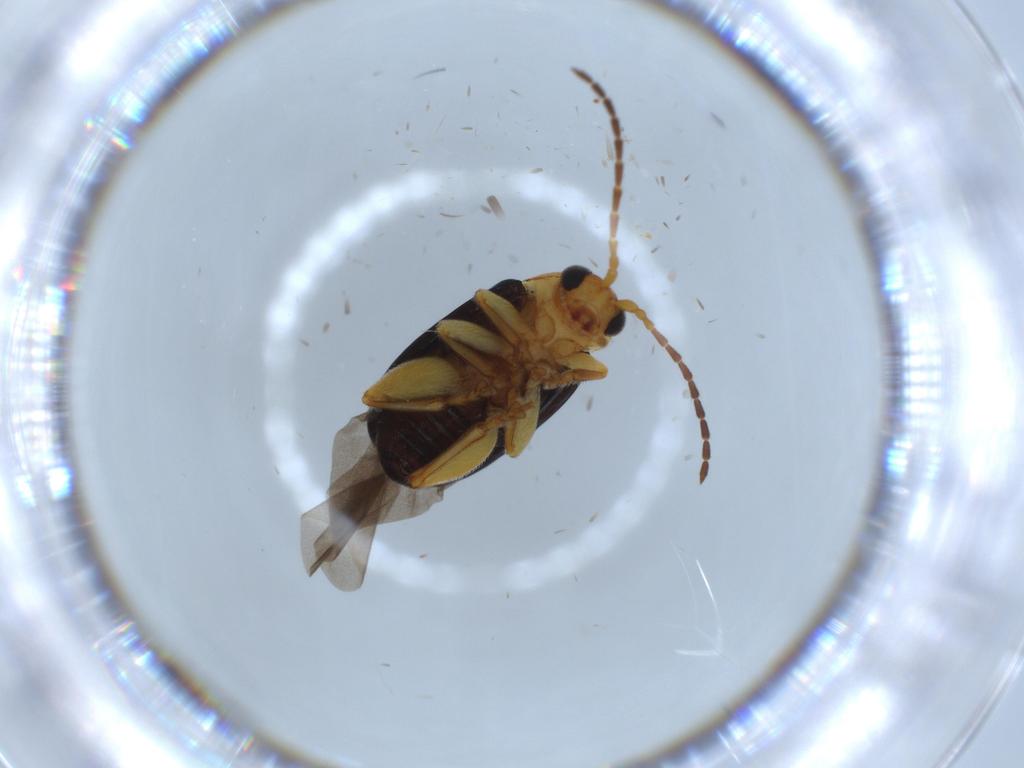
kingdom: Animalia
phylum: Arthropoda
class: Insecta
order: Coleoptera
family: Chrysomelidae
